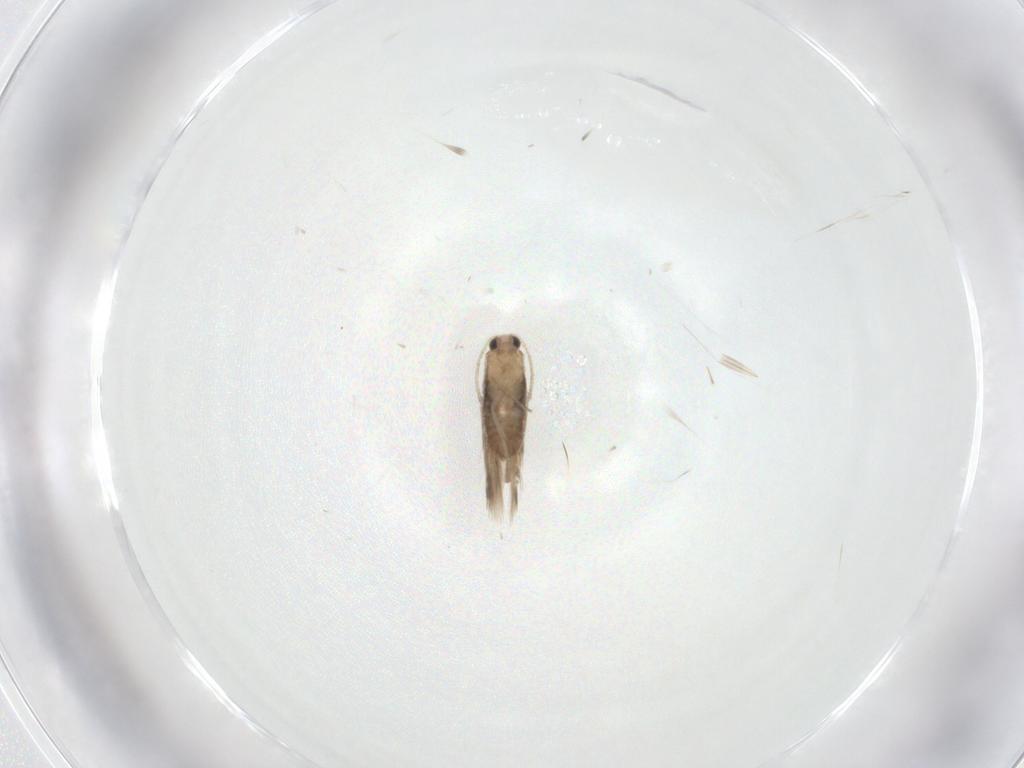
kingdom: Animalia
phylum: Arthropoda
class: Insecta
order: Lepidoptera
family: Nepticulidae
